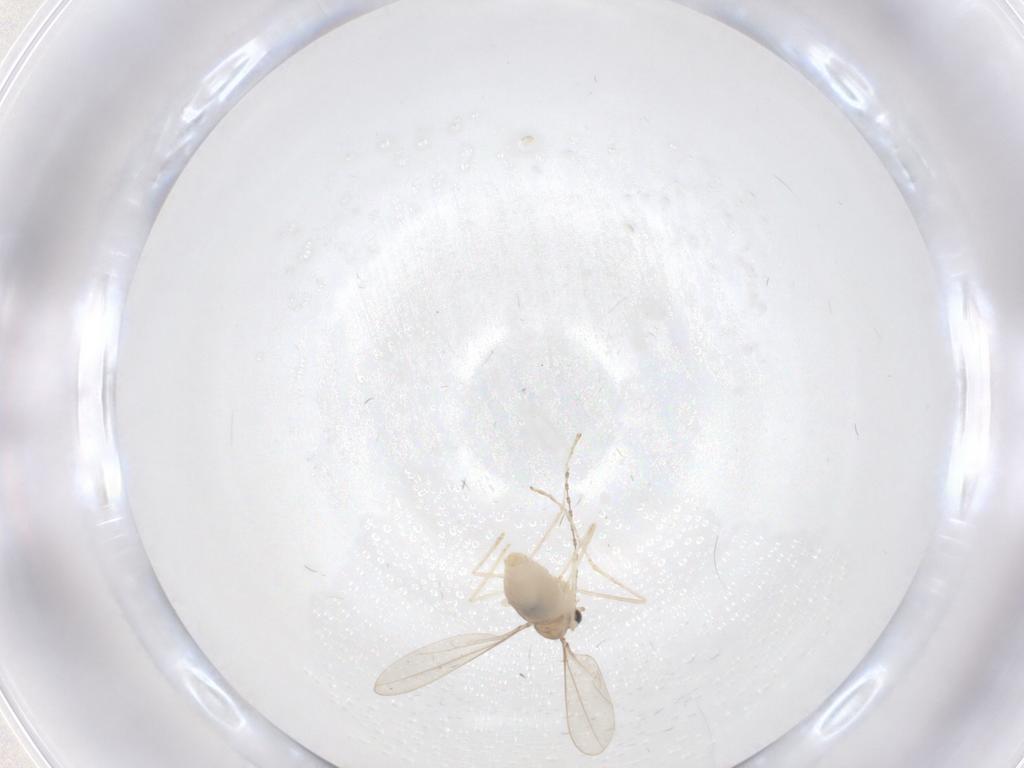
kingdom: Animalia
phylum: Arthropoda
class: Insecta
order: Diptera
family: Cecidomyiidae
